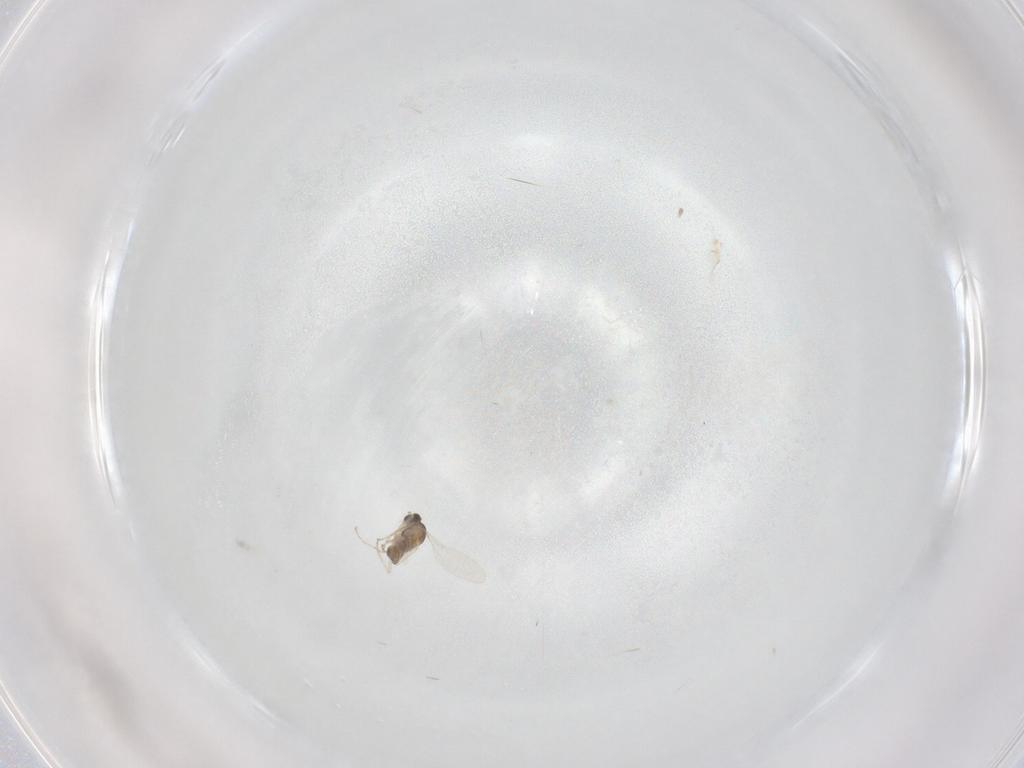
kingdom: Animalia
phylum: Arthropoda
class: Insecta
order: Diptera
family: Cecidomyiidae
